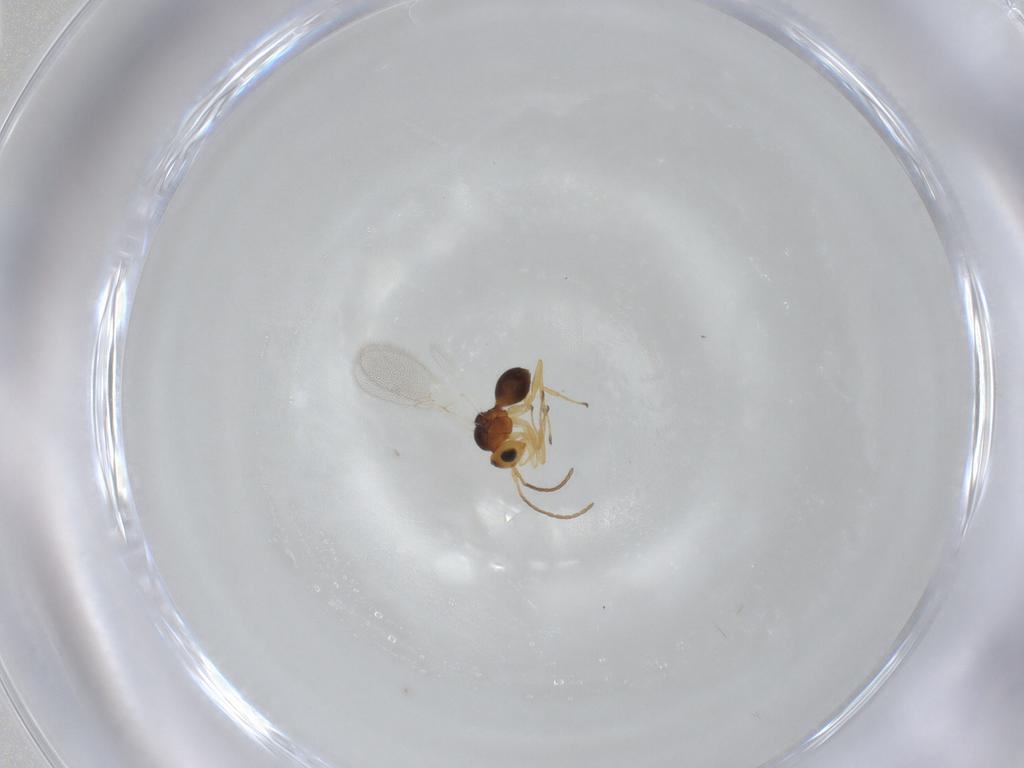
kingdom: Animalia
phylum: Arthropoda
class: Insecta
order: Hymenoptera
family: Figitidae
